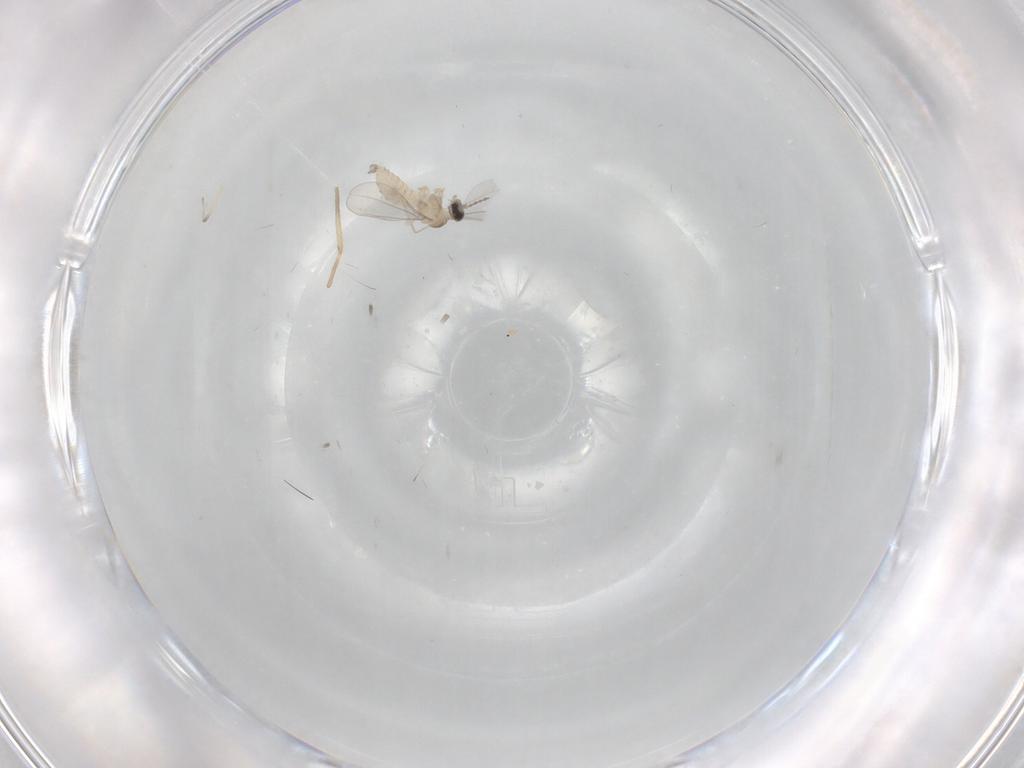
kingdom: Animalia
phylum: Arthropoda
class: Insecta
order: Diptera
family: Cecidomyiidae
